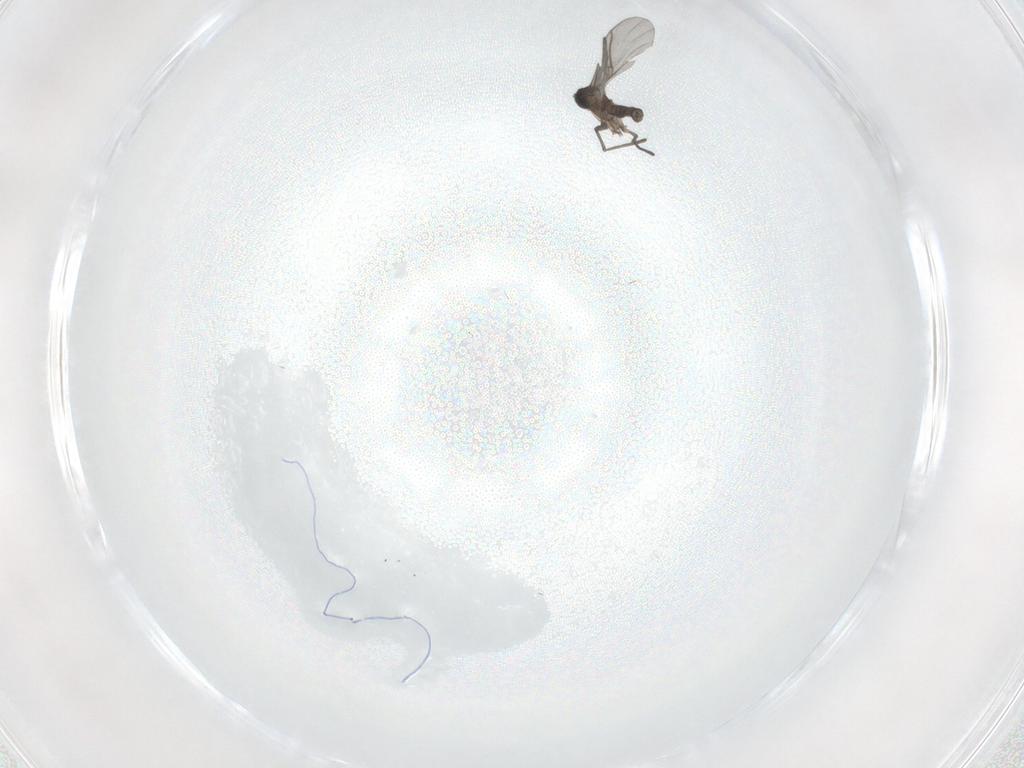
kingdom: Animalia
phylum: Arthropoda
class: Insecta
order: Diptera
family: Sciaridae
